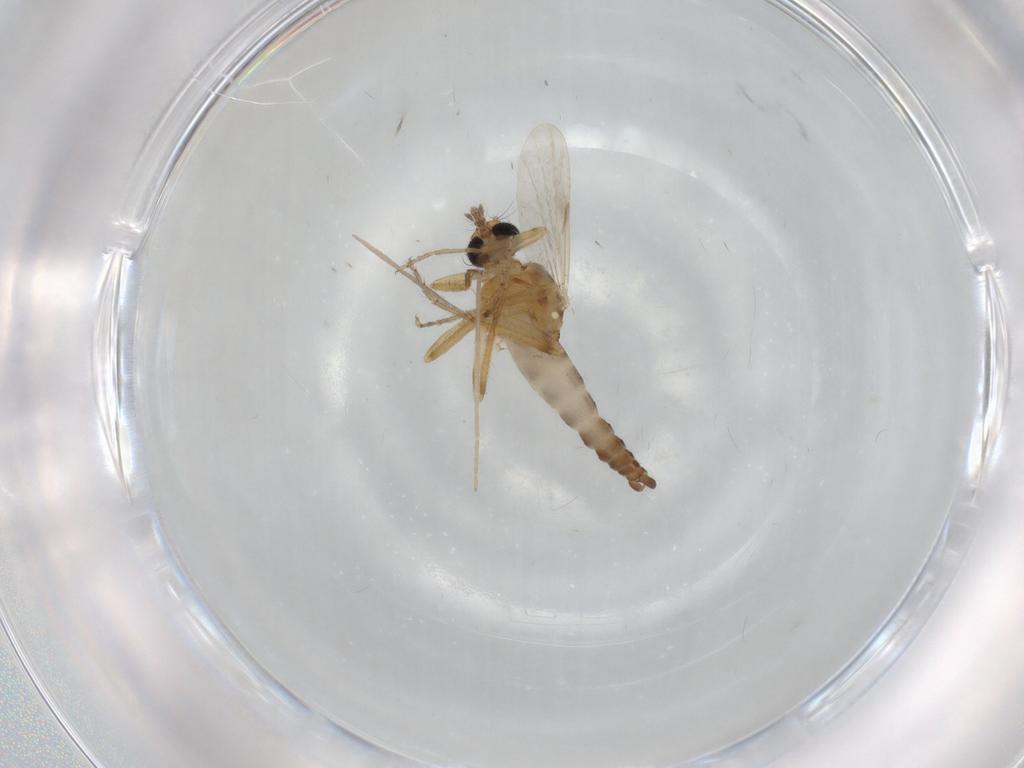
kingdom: Animalia
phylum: Arthropoda
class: Insecta
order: Diptera
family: Ceratopogonidae
